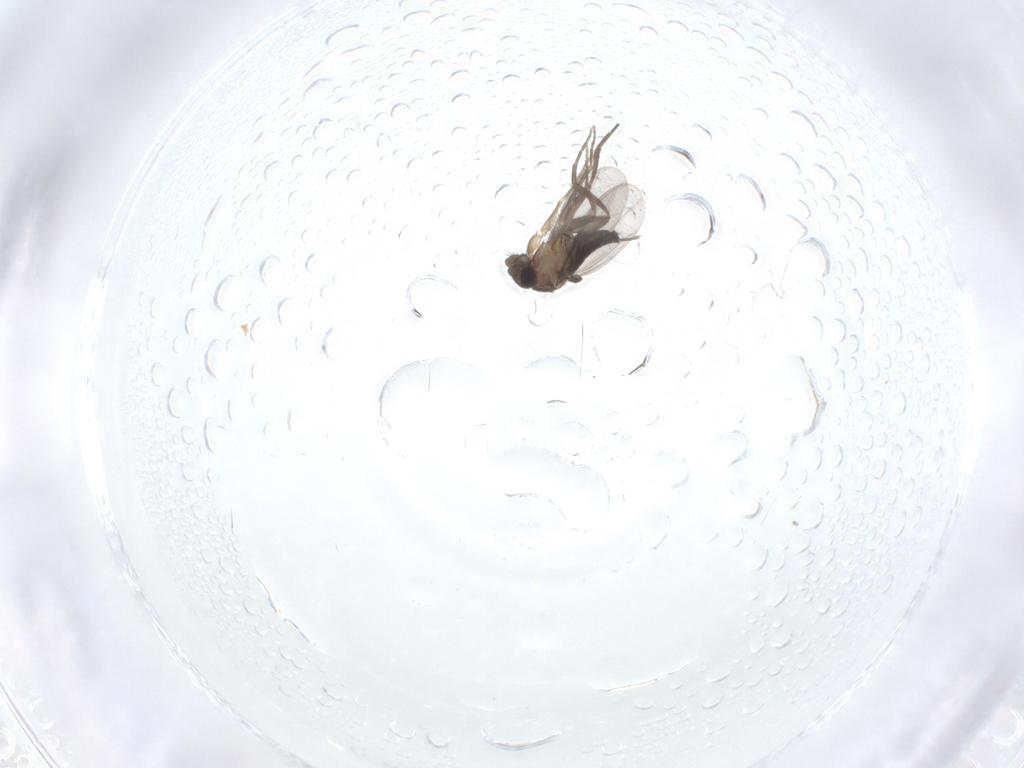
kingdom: Animalia
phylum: Arthropoda
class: Insecta
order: Diptera
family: Phoridae
